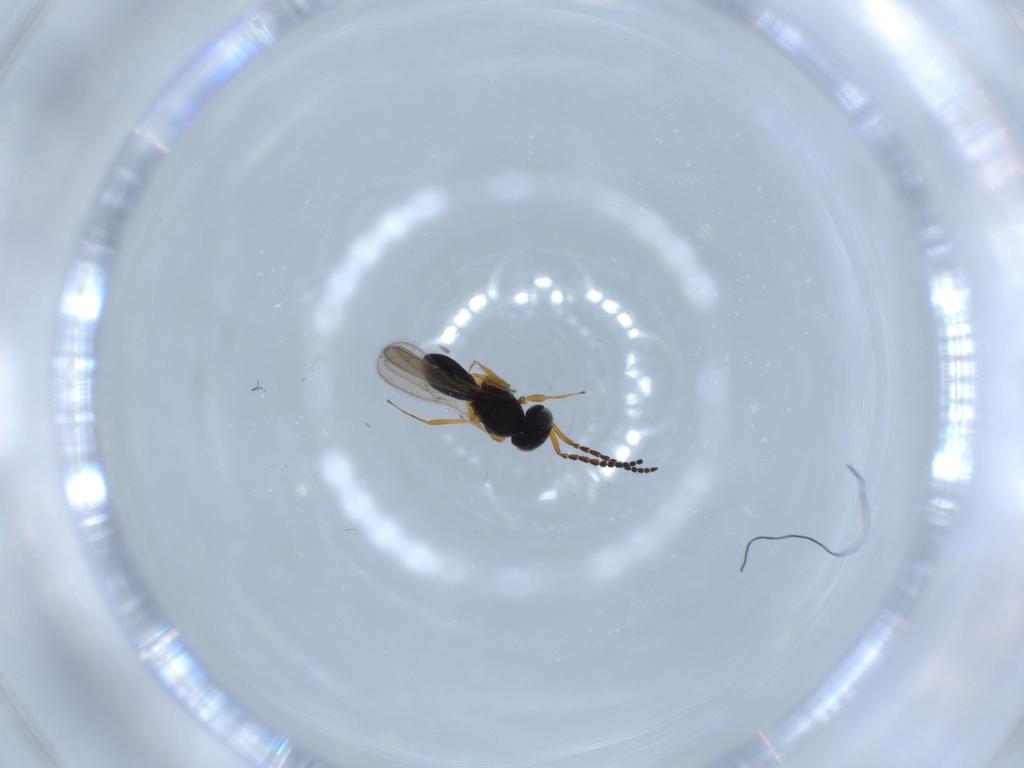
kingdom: Animalia
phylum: Arthropoda
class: Insecta
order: Hymenoptera
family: Scelionidae
